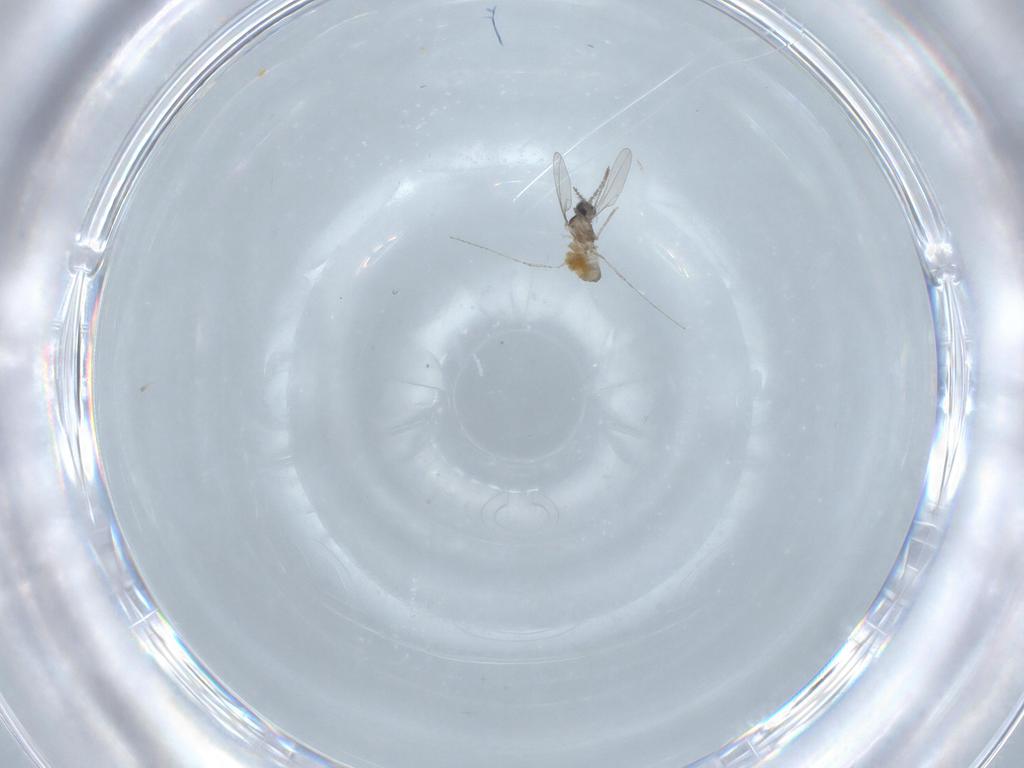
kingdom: Animalia
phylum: Arthropoda
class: Insecta
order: Diptera
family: Cecidomyiidae
